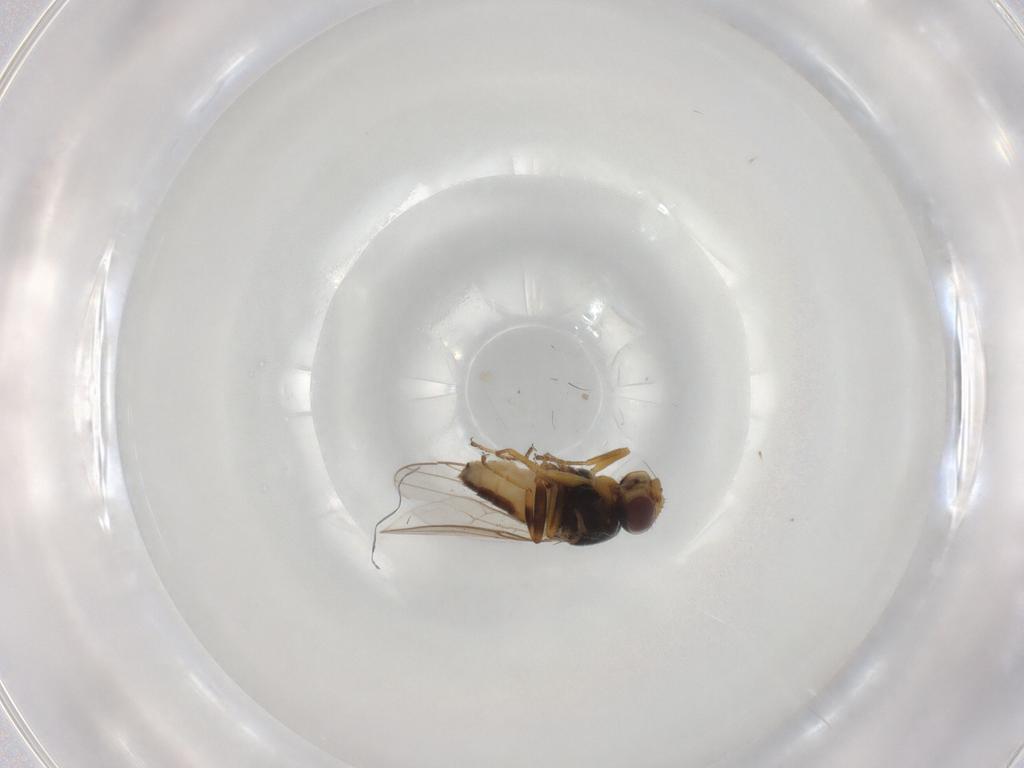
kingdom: Animalia
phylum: Arthropoda
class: Insecta
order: Diptera
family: Chloropidae
